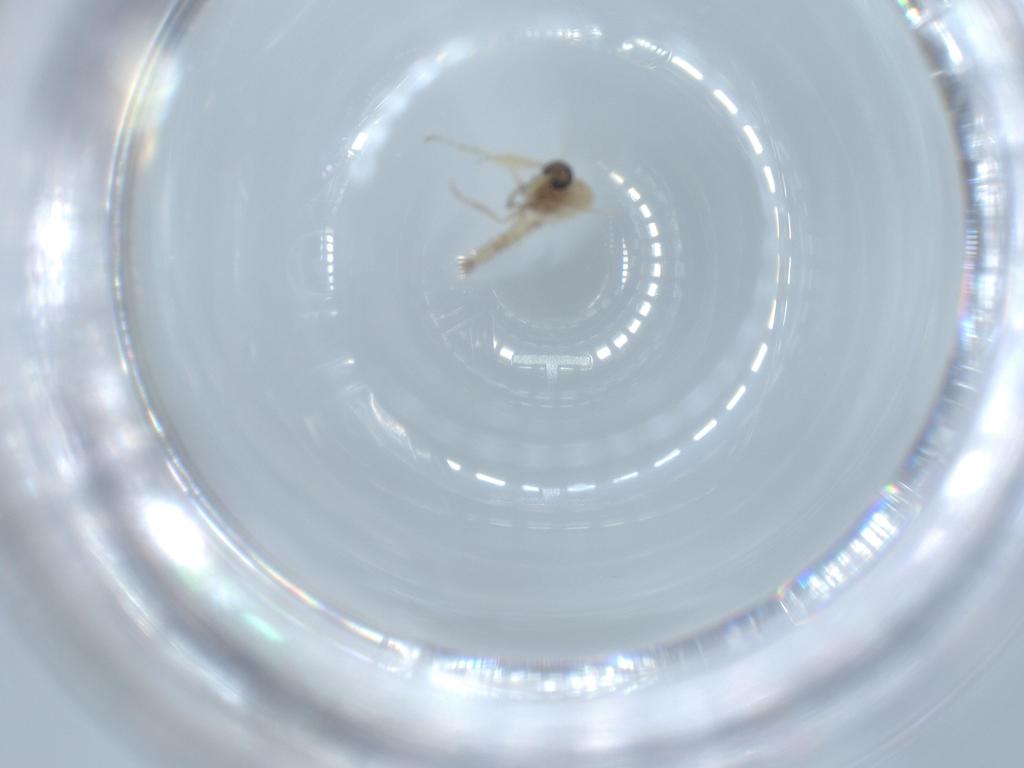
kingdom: Animalia
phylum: Arthropoda
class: Insecta
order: Diptera
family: Ceratopogonidae
